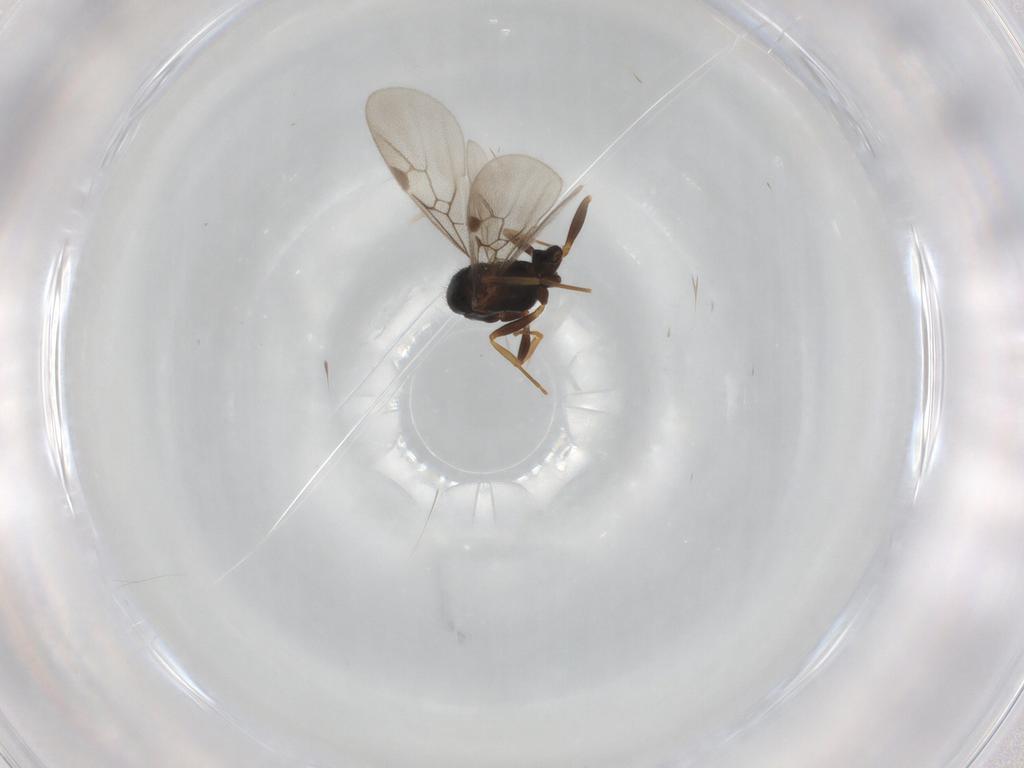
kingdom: Animalia
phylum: Arthropoda
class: Insecta
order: Hymenoptera
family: Formicidae
